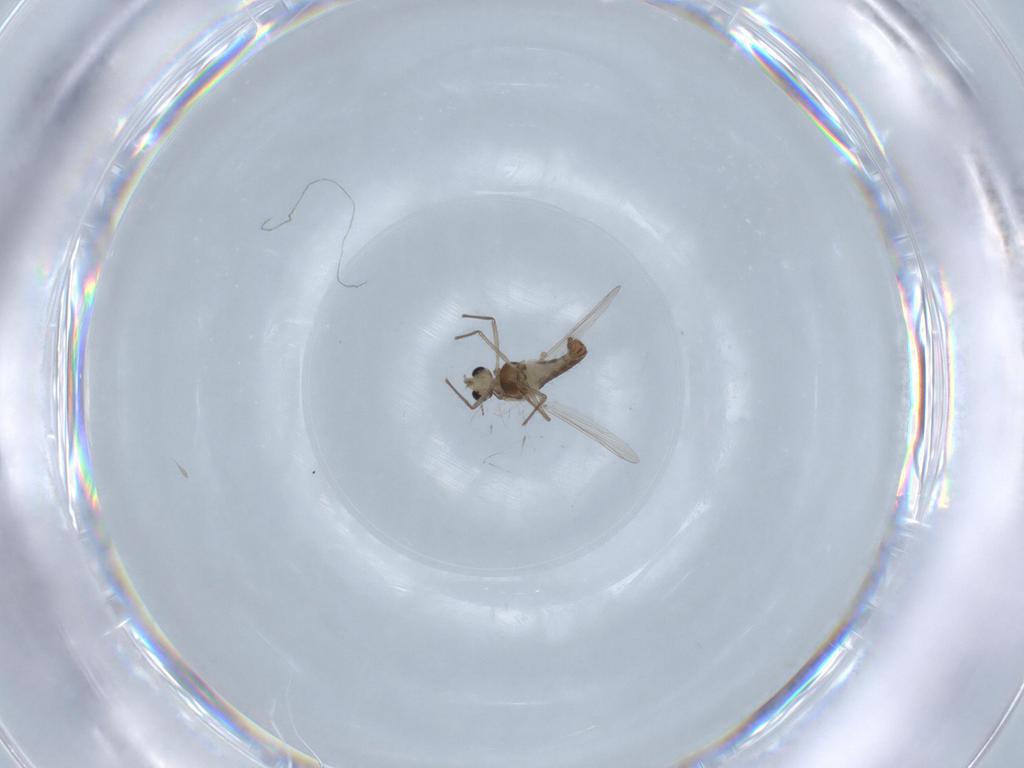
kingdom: Animalia
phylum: Arthropoda
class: Insecta
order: Diptera
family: Chironomidae
